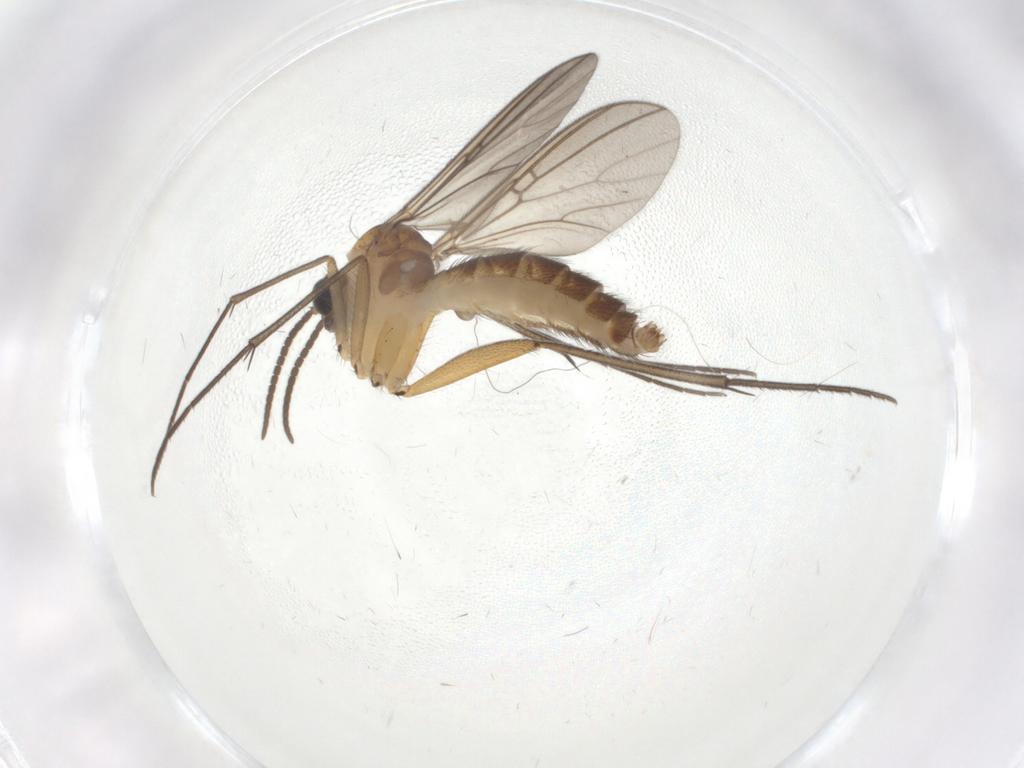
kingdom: Animalia
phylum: Arthropoda
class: Insecta
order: Diptera
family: Mycetophilidae
